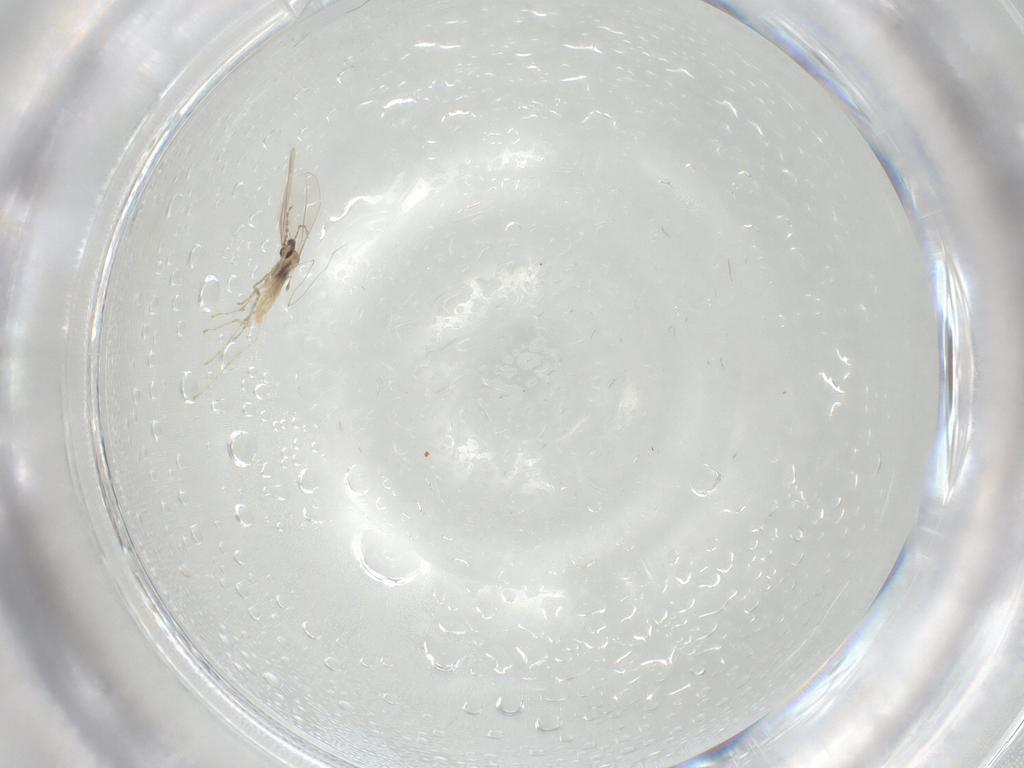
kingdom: Animalia
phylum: Arthropoda
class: Insecta
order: Diptera
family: Cecidomyiidae
